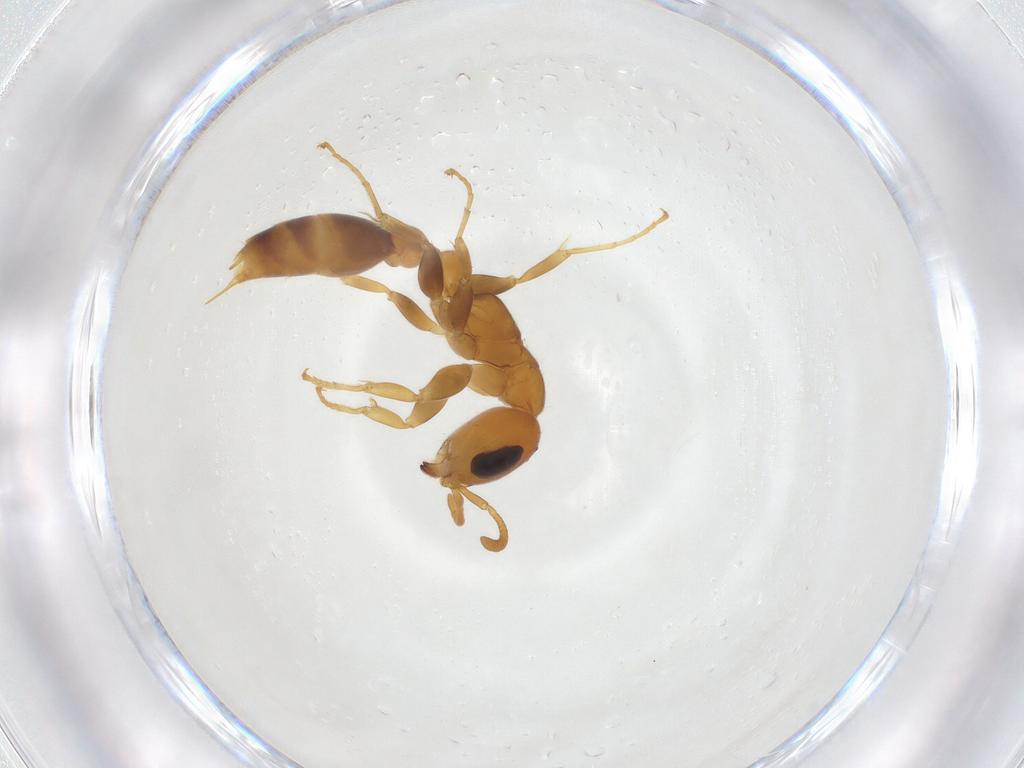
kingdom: Animalia
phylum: Arthropoda
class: Insecta
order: Hymenoptera
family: Formicidae
